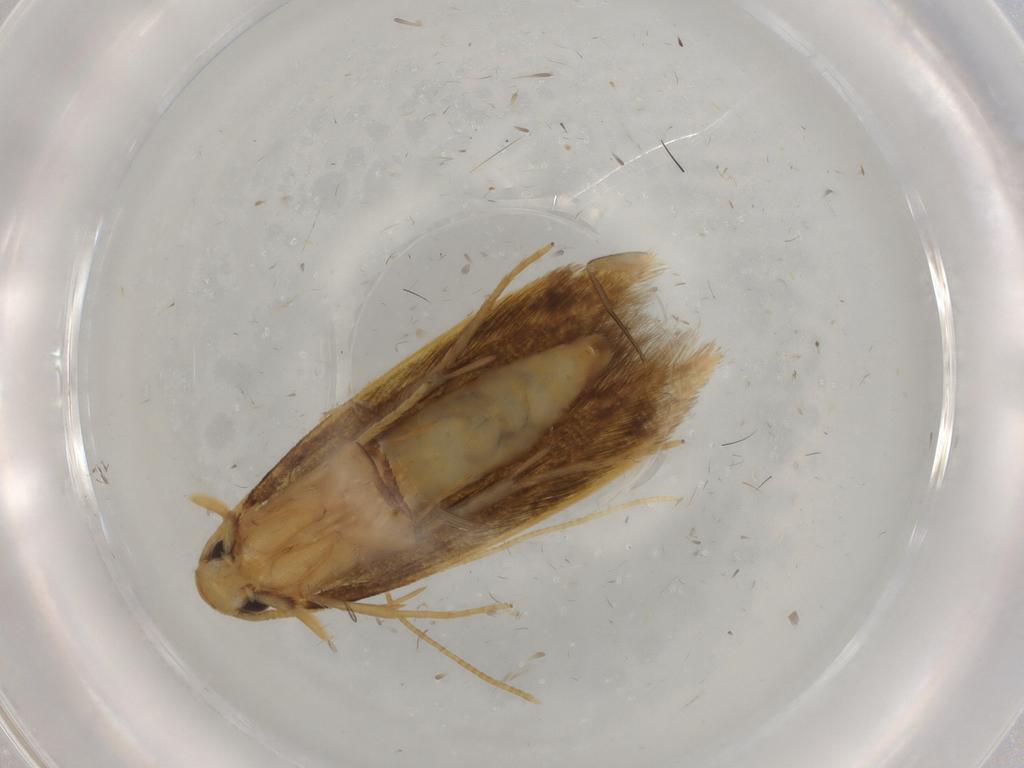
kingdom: Animalia
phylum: Arthropoda
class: Insecta
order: Lepidoptera
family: Tineidae
